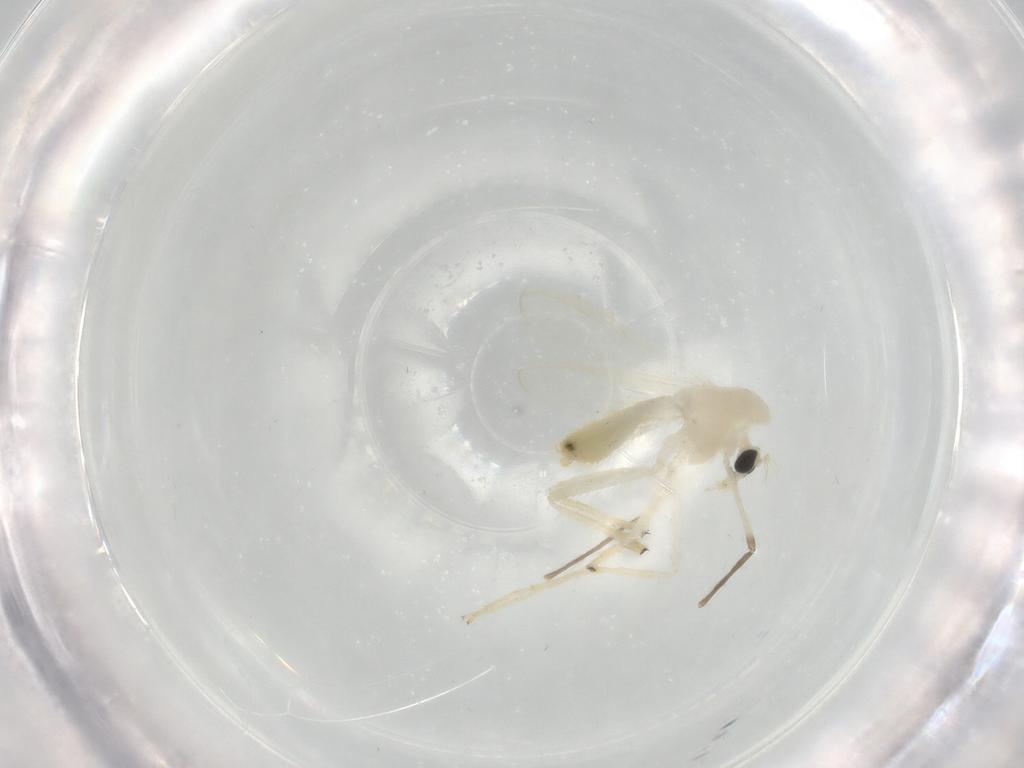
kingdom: Animalia
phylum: Arthropoda
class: Insecta
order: Diptera
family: Chironomidae
